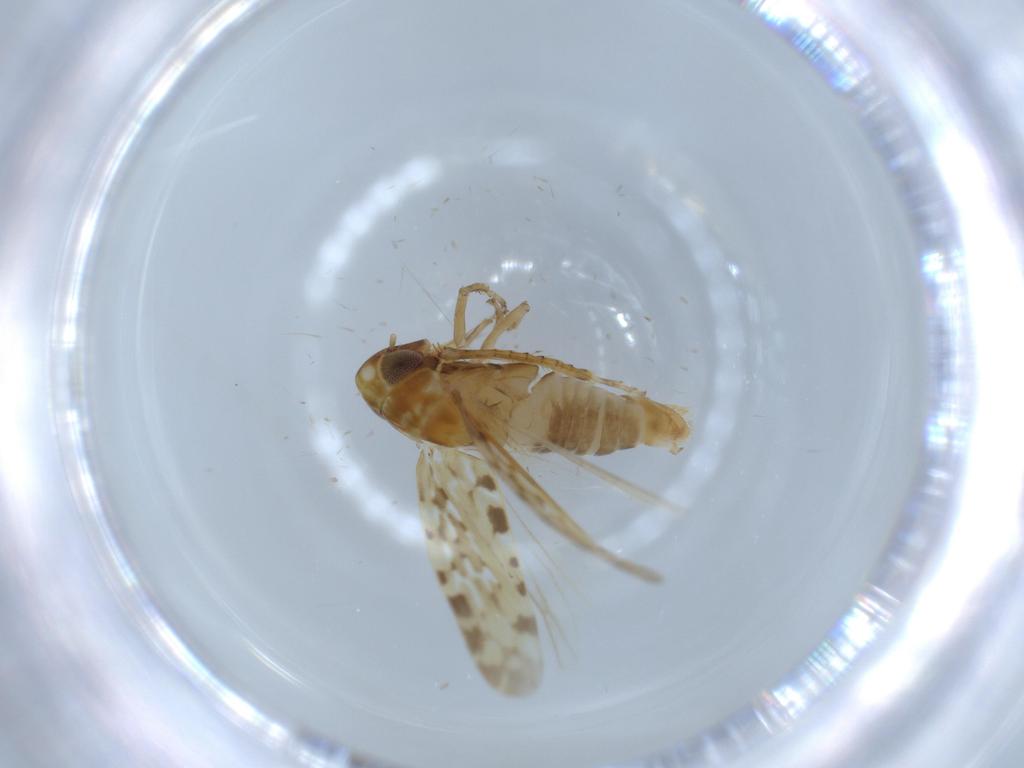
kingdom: Animalia
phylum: Arthropoda
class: Insecta
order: Hemiptera
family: Cicadellidae
